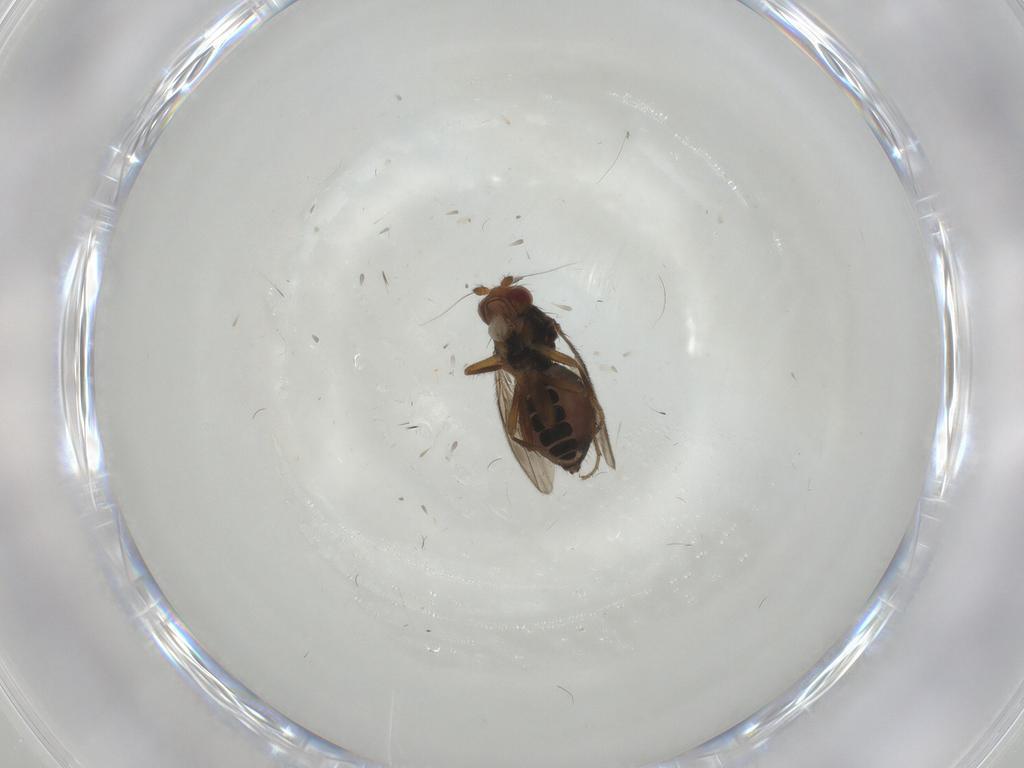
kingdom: Animalia
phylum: Arthropoda
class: Insecta
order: Diptera
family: Sphaeroceridae
